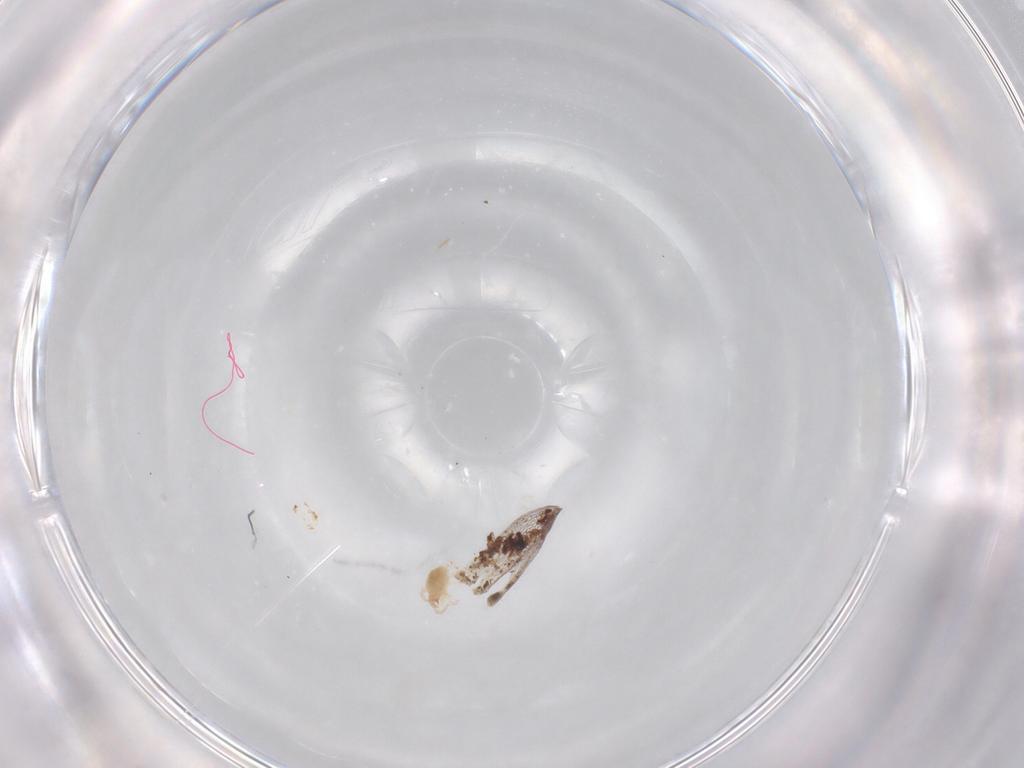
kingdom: Animalia
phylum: Arthropoda
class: Arachnida
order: Trombidiformes
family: Stigmaeidae
